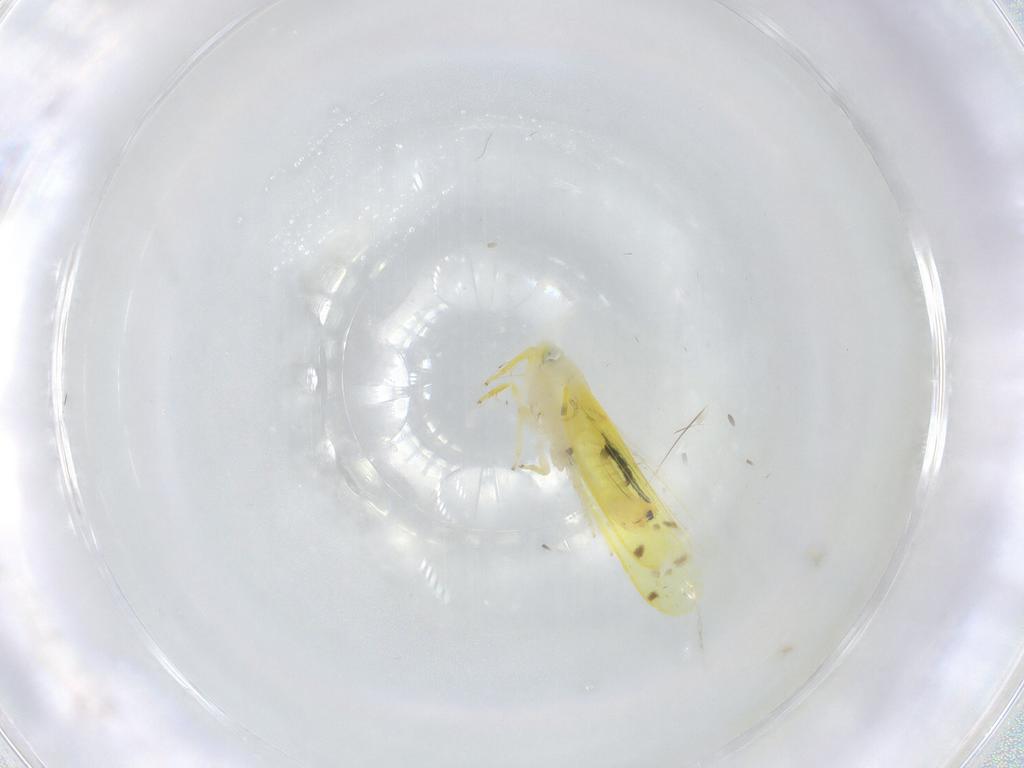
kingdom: Animalia
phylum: Arthropoda
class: Insecta
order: Hemiptera
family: Cicadellidae
